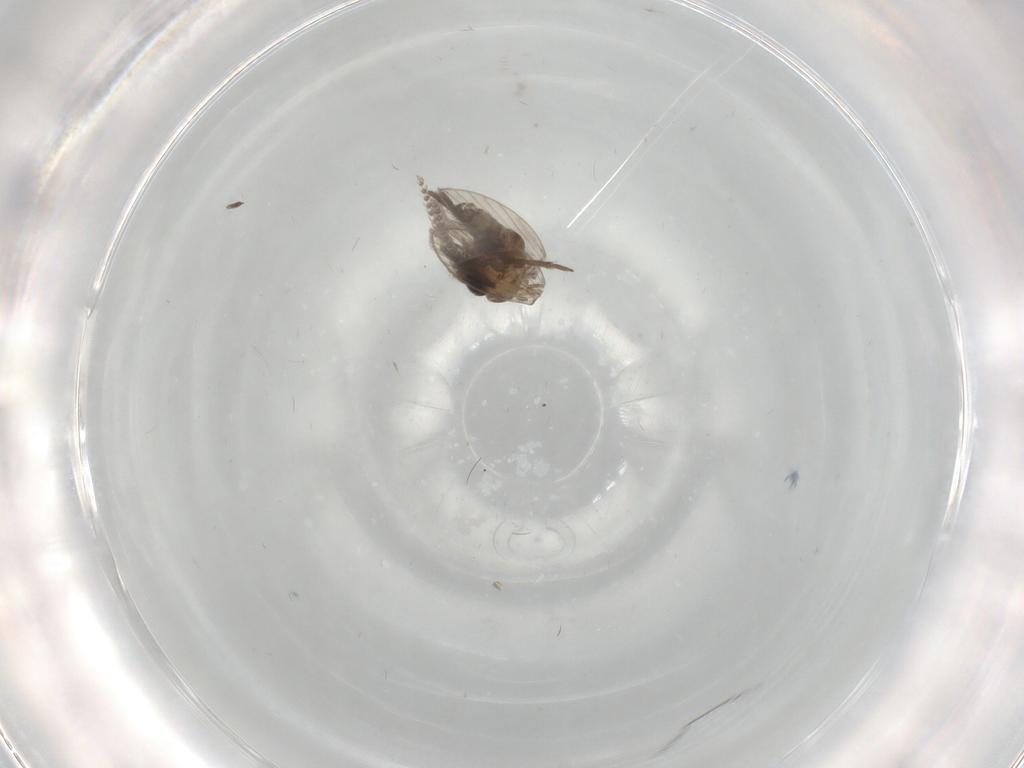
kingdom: Animalia
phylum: Arthropoda
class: Insecta
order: Diptera
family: Psychodidae
